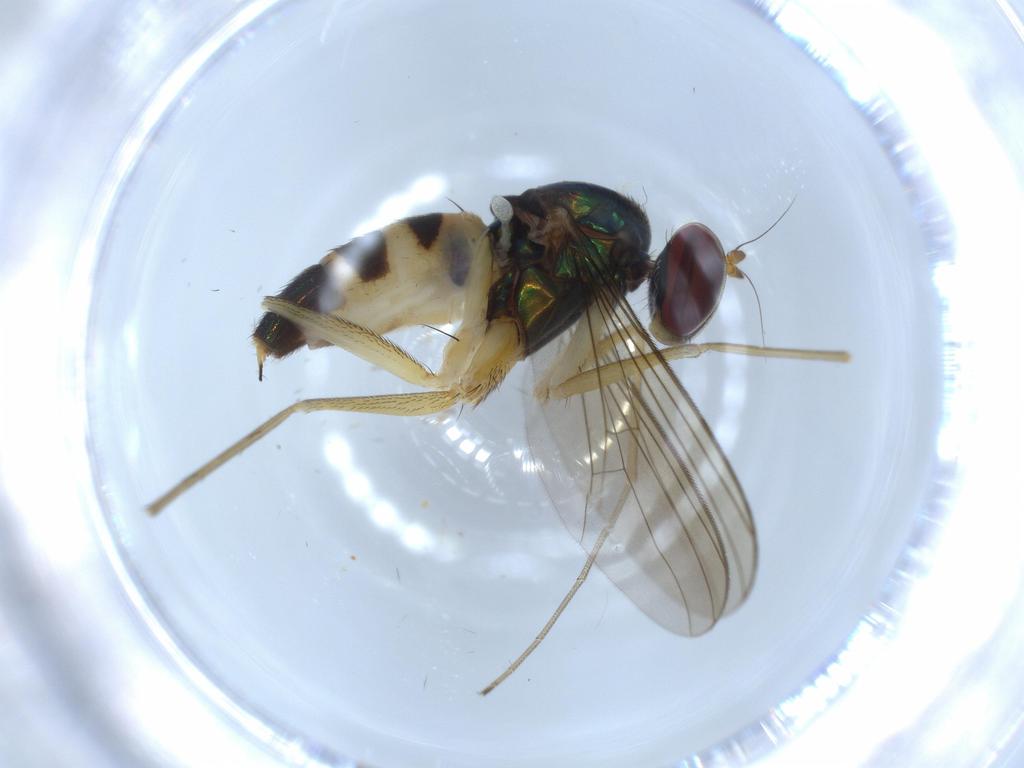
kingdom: Animalia
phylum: Arthropoda
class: Insecta
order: Diptera
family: Dolichopodidae
